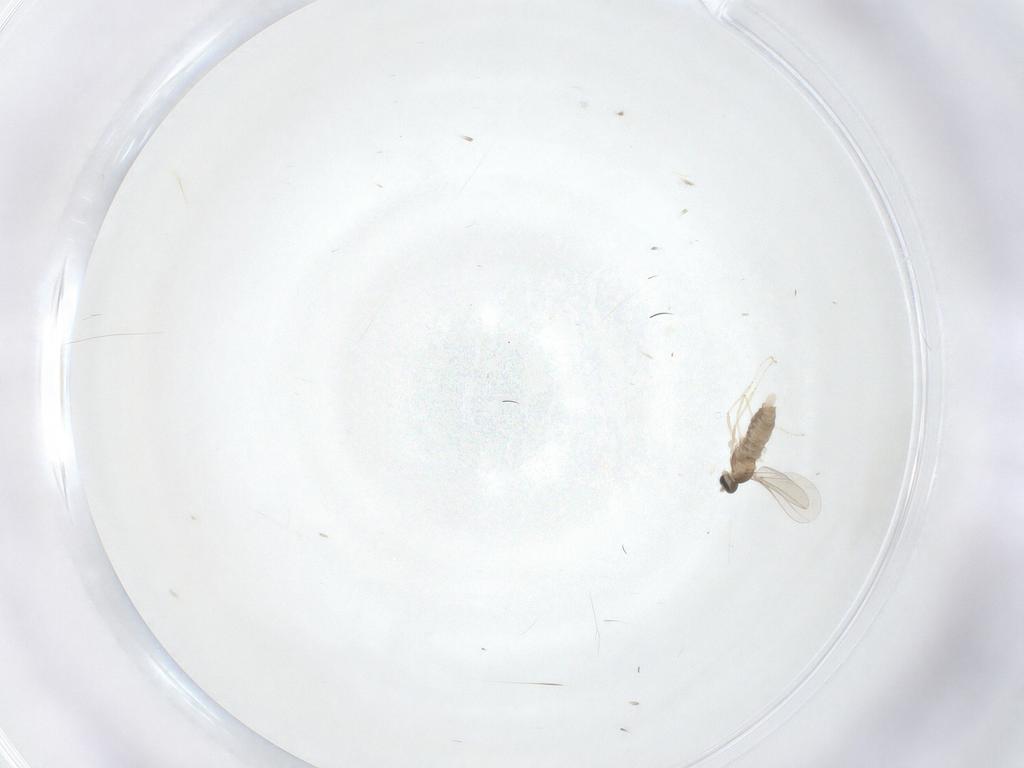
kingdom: Animalia
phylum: Arthropoda
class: Insecta
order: Diptera
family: Cecidomyiidae
